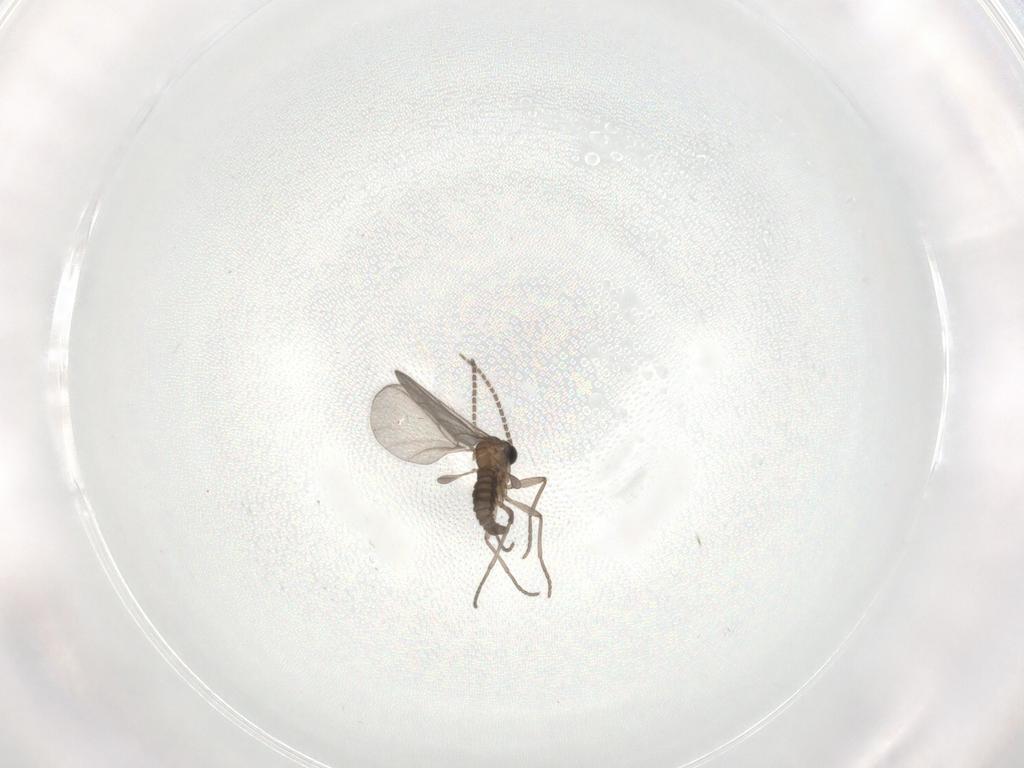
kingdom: Animalia
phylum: Arthropoda
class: Insecta
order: Diptera
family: Sciaridae
